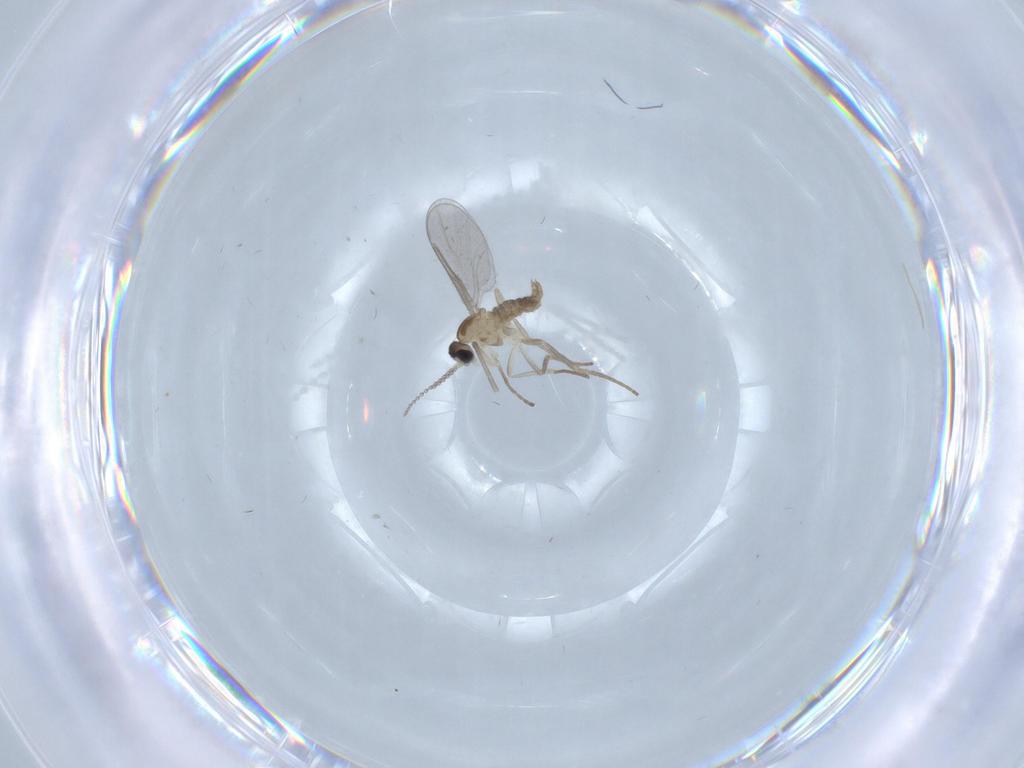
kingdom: Animalia
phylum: Arthropoda
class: Insecta
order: Diptera
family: Cecidomyiidae
